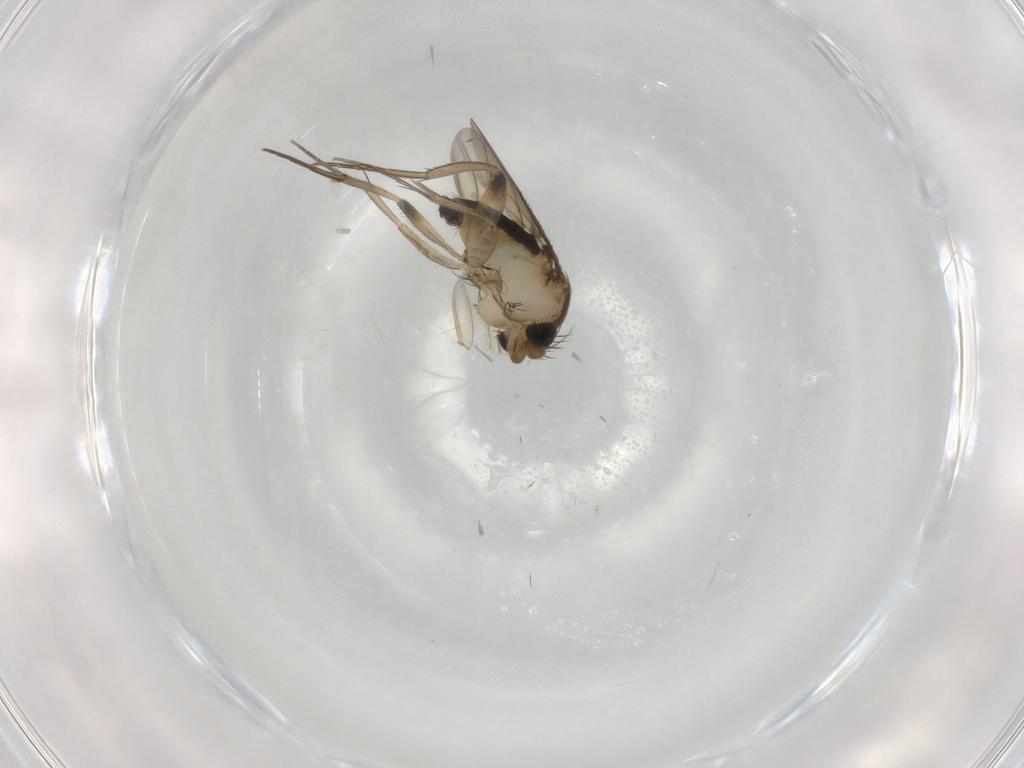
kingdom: Animalia
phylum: Arthropoda
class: Insecta
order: Diptera
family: Phoridae
